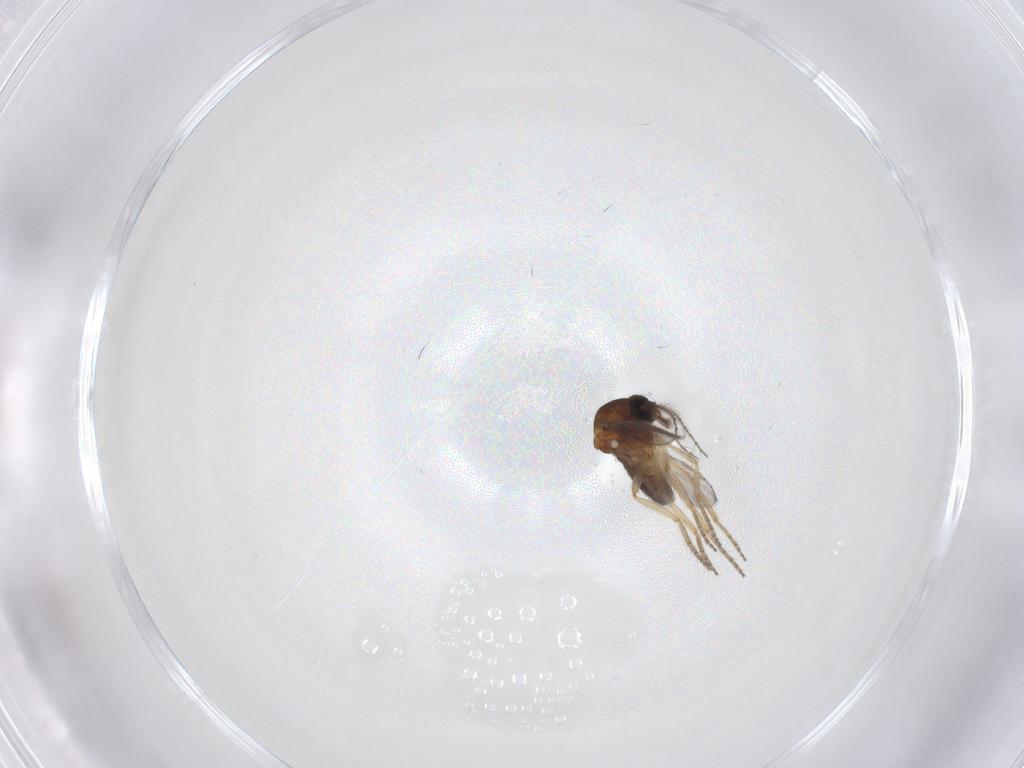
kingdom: Animalia
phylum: Arthropoda
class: Insecta
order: Diptera
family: Ceratopogonidae
